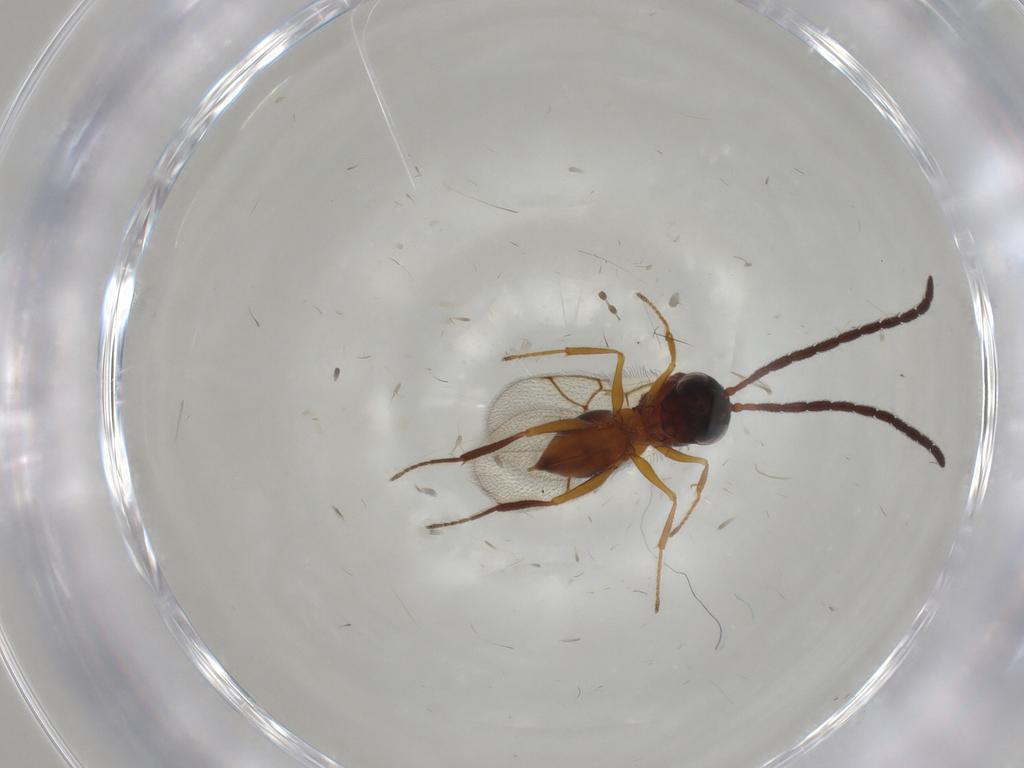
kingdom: Animalia
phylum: Arthropoda
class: Insecta
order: Hymenoptera
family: Figitidae
